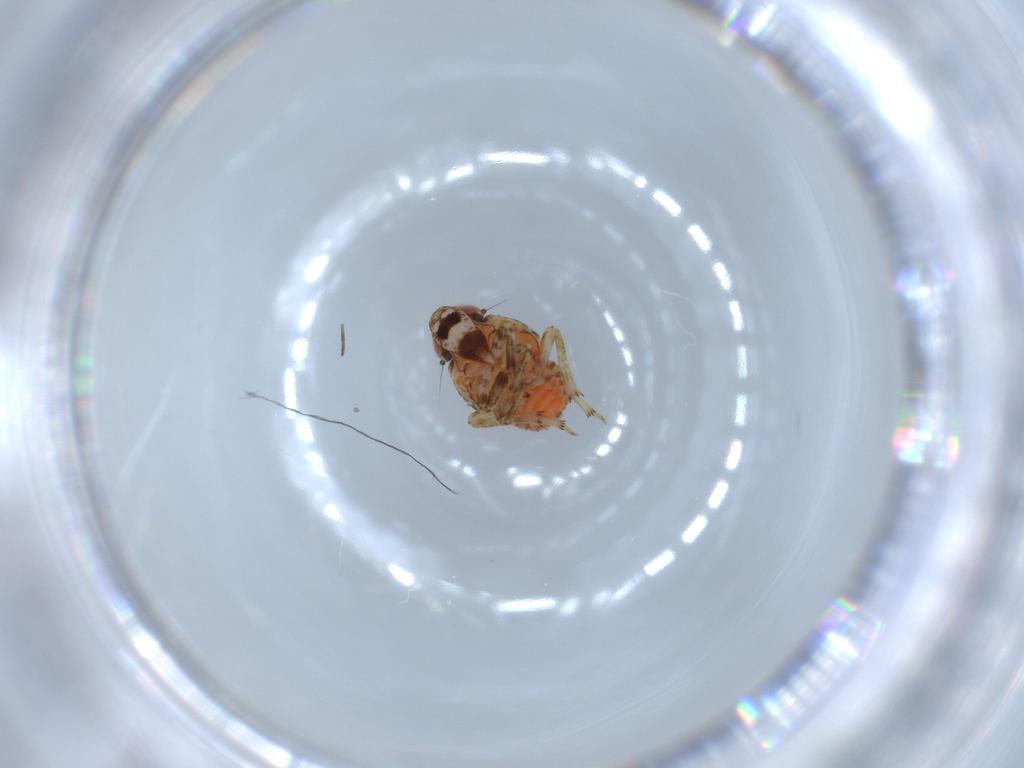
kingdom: Animalia
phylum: Arthropoda
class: Insecta
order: Hemiptera
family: Issidae
